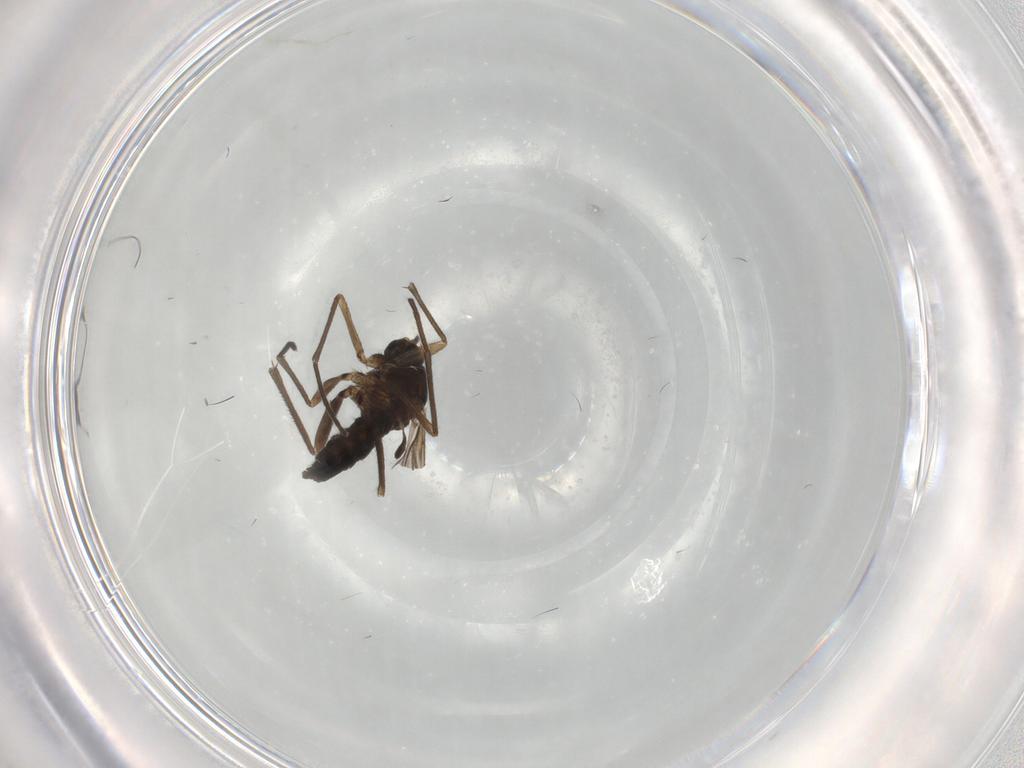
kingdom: Animalia
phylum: Arthropoda
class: Insecta
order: Diptera
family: Sciaridae
